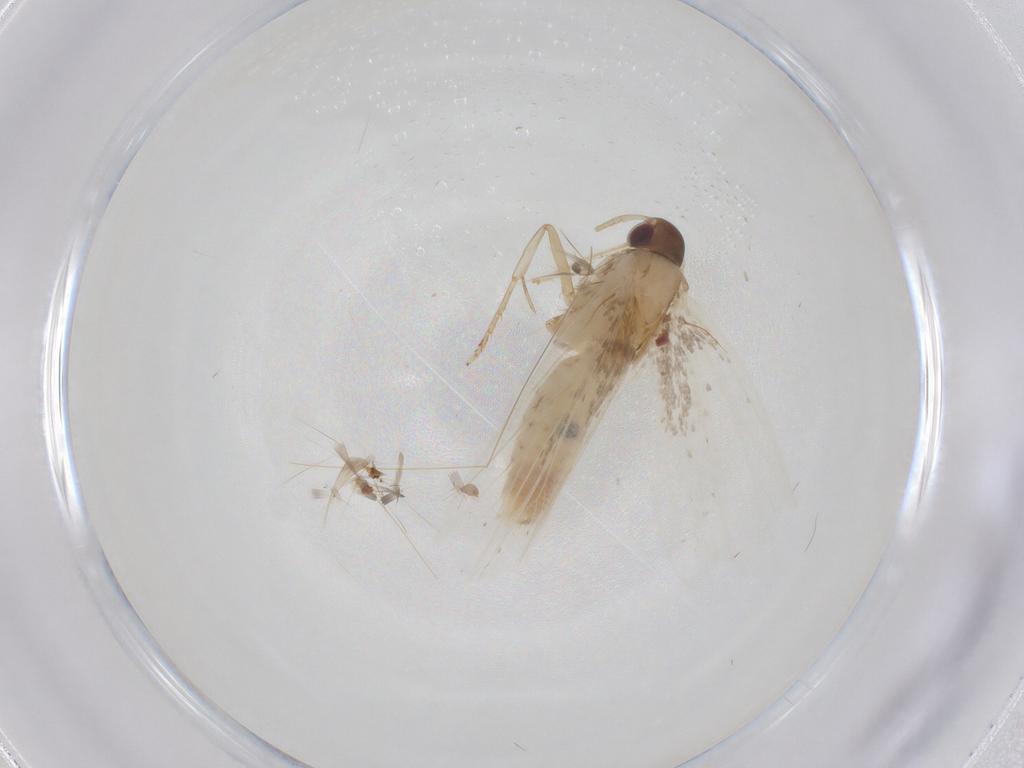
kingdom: Animalia
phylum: Arthropoda
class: Insecta
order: Lepidoptera
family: Gelechiidae
